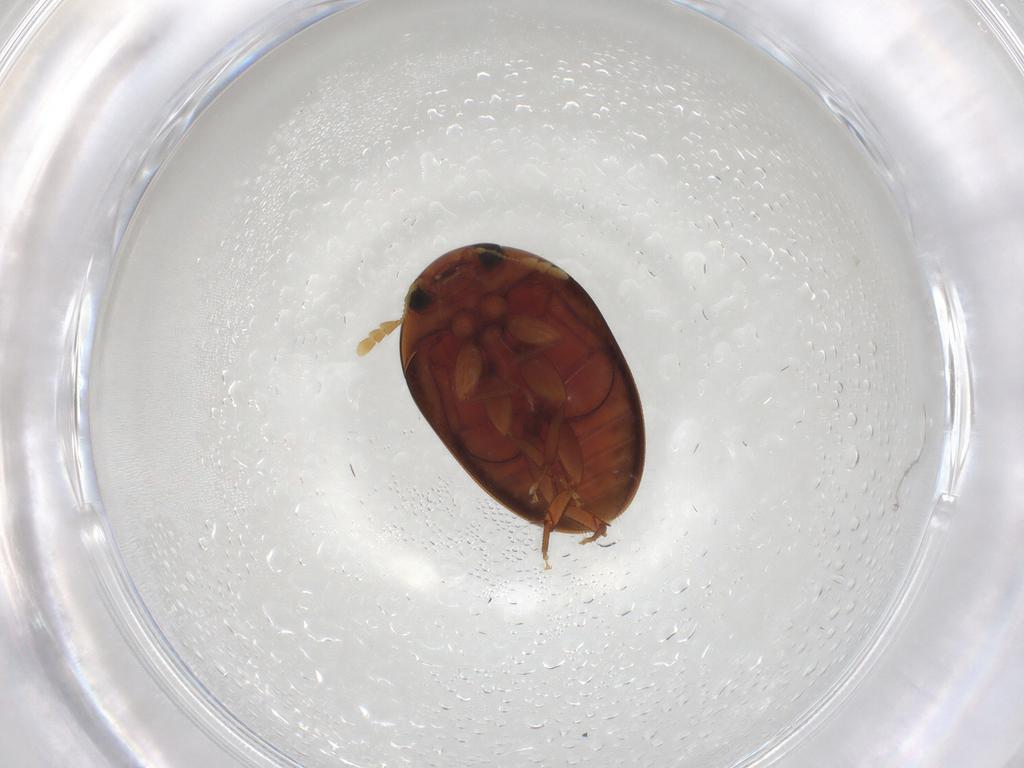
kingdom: Animalia
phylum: Arthropoda
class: Insecta
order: Coleoptera
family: Phalacridae
